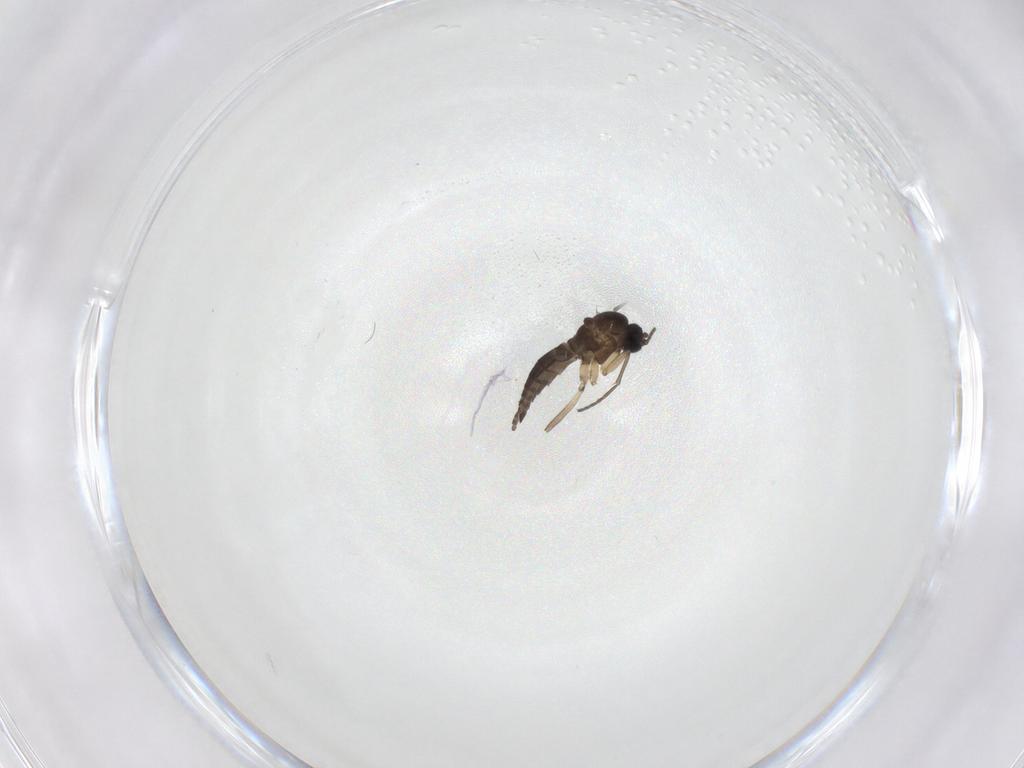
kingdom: Animalia
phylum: Arthropoda
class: Insecta
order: Diptera
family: Sciaridae
